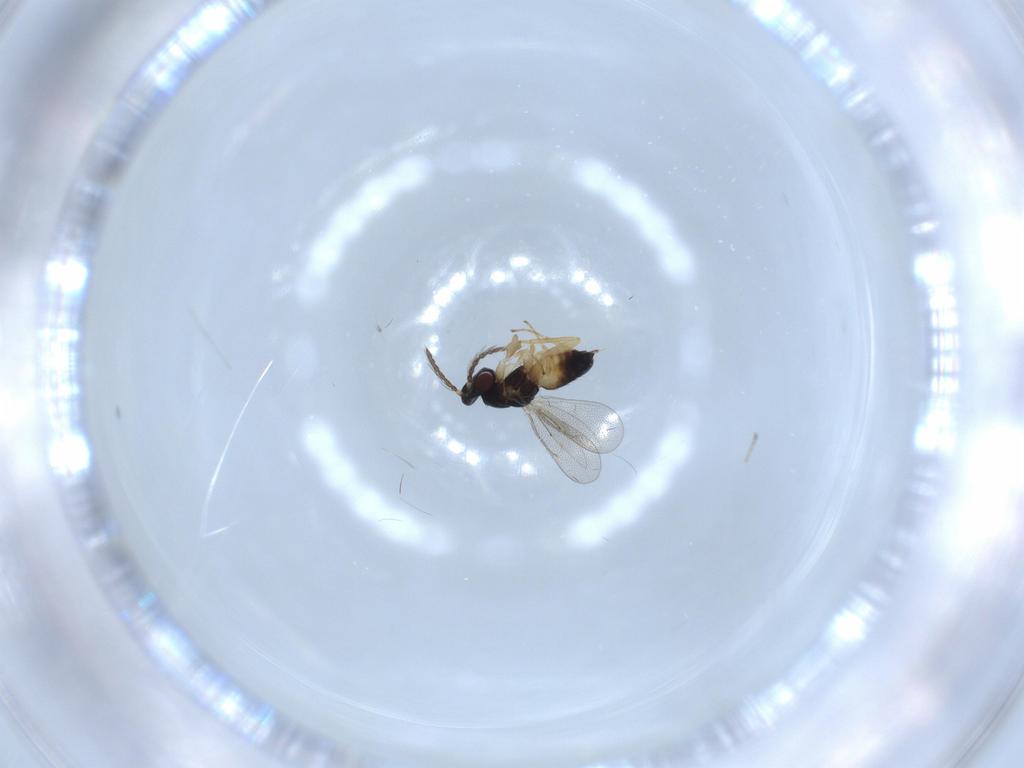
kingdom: Animalia
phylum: Arthropoda
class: Insecta
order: Hymenoptera
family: Eulophidae
